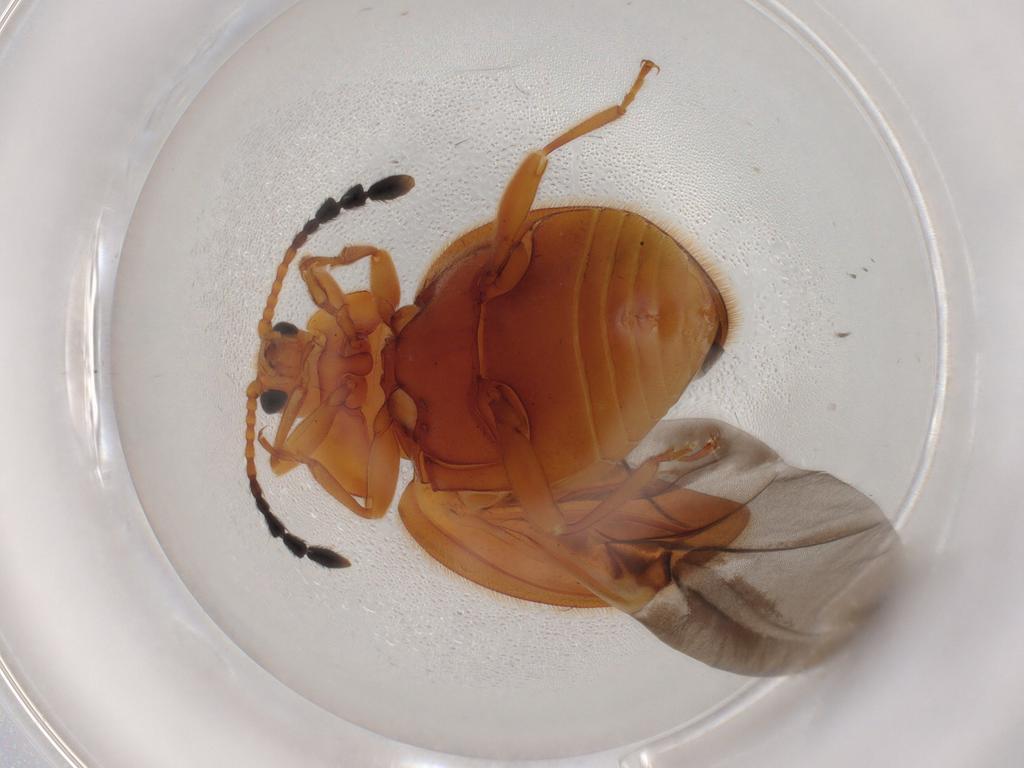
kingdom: Animalia
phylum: Arthropoda
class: Insecta
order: Coleoptera
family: Endomychidae
